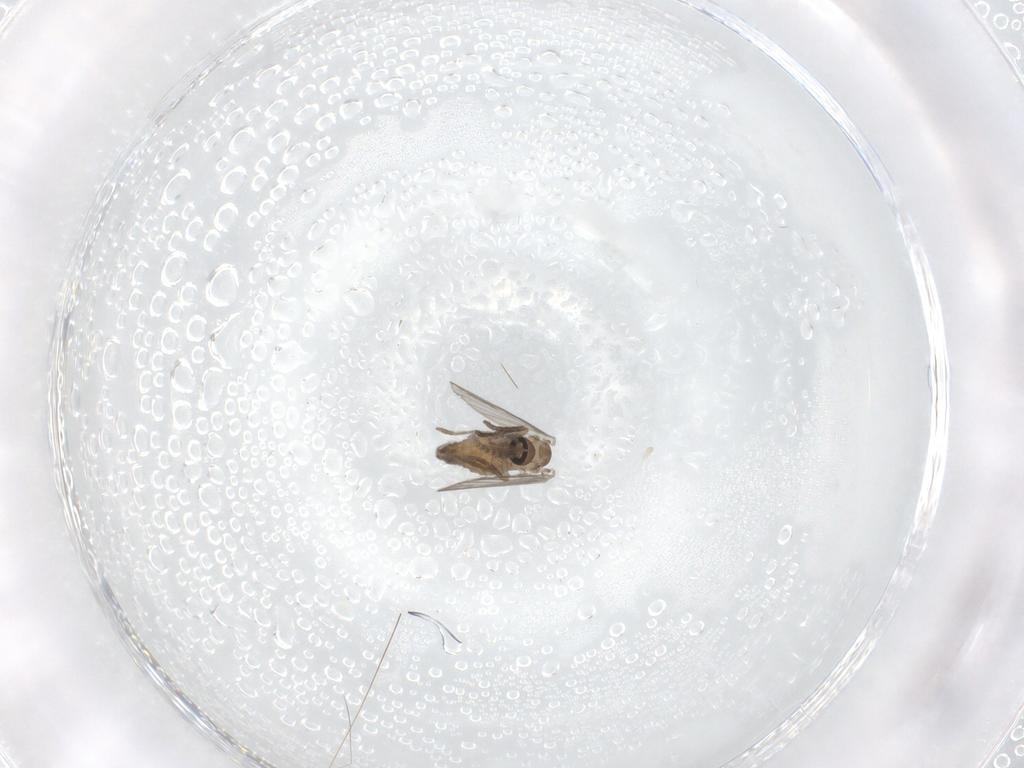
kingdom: Animalia
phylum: Arthropoda
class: Insecta
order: Diptera
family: Psychodidae
